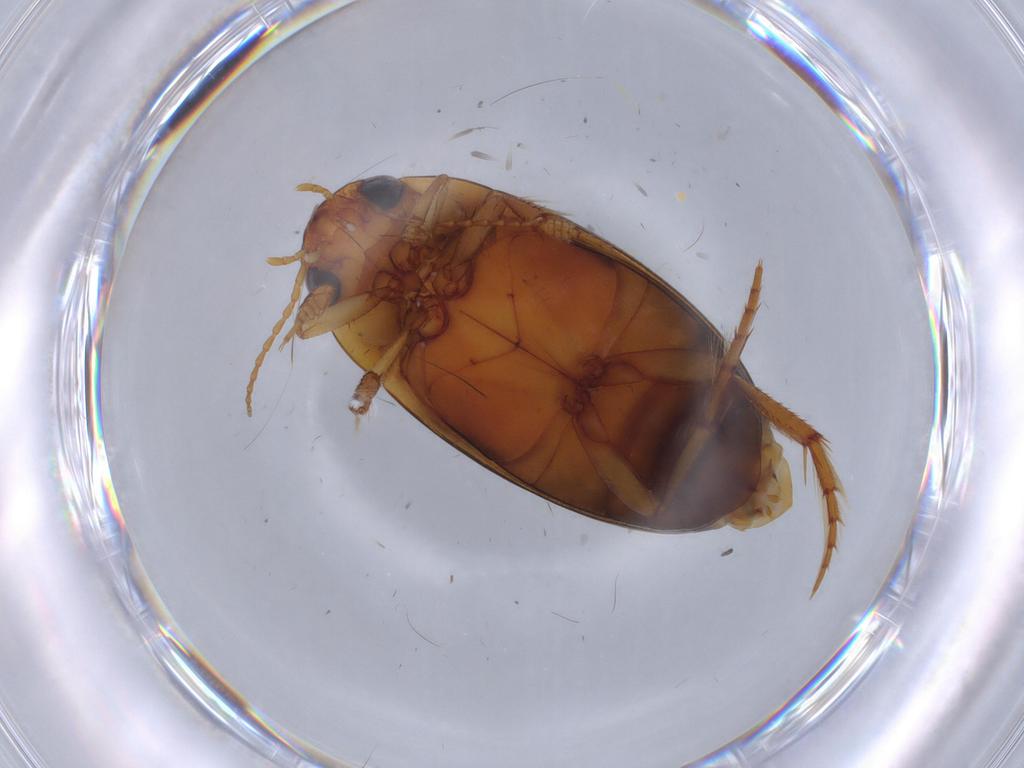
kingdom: Animalia
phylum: Arthropoda
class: Insecta
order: Coleoptera
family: Dytiscidae
